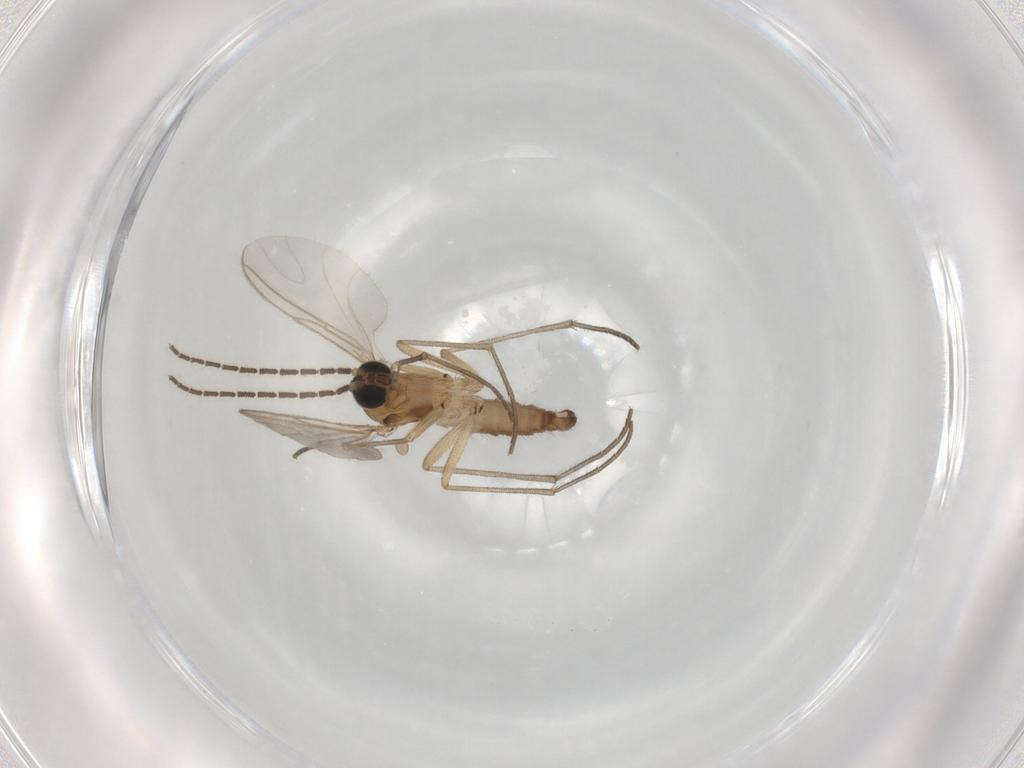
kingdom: Animalia
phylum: Arthropoda
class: Insecta
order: Diptera
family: Sciaridae
